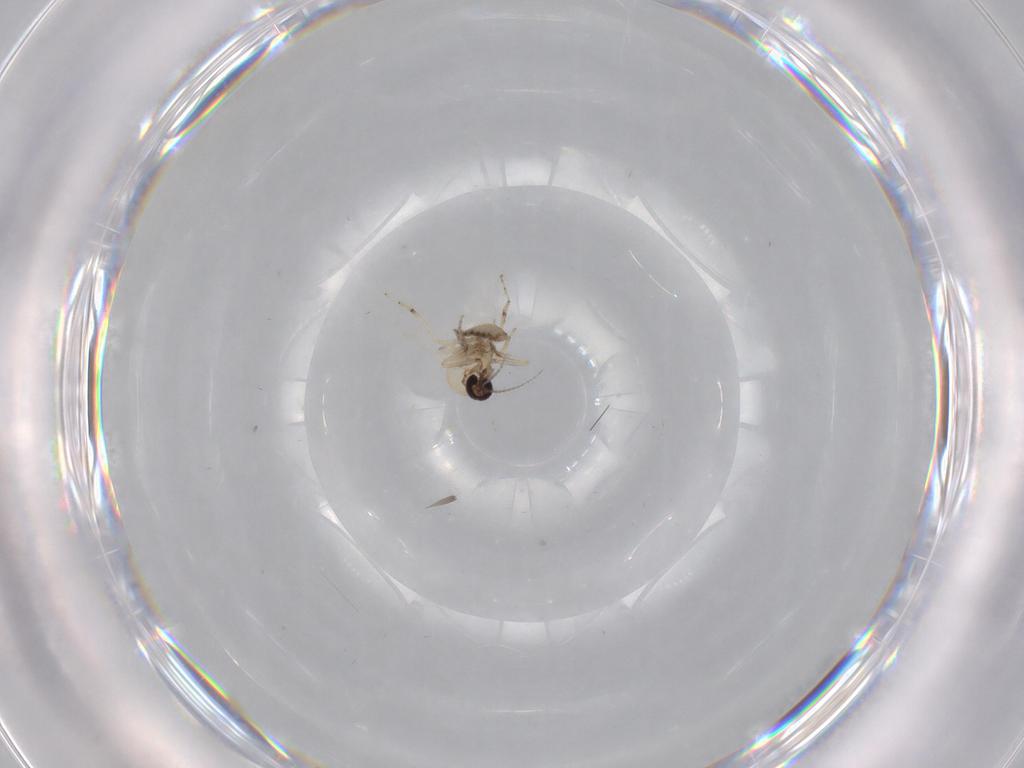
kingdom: Animalia
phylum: Arthropoda
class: Insecta
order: Diptera
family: Ceratopogonidae
